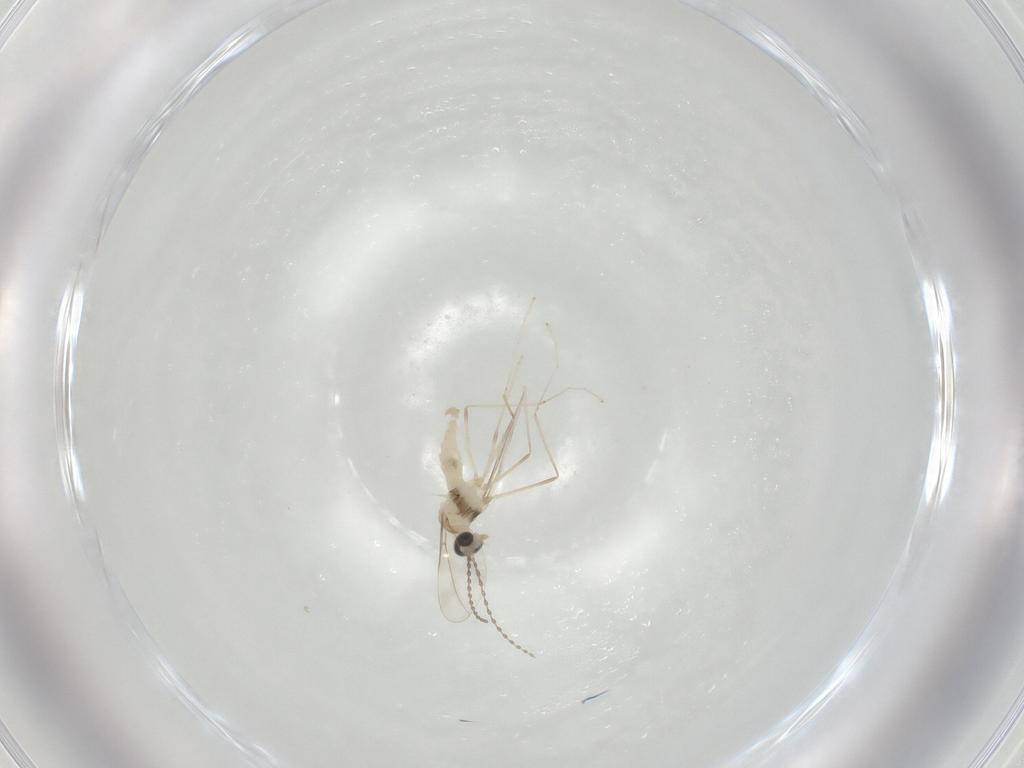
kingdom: Animalia
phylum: Arthropoda
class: Insecta
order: Diptera
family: Cecidomyiidae
